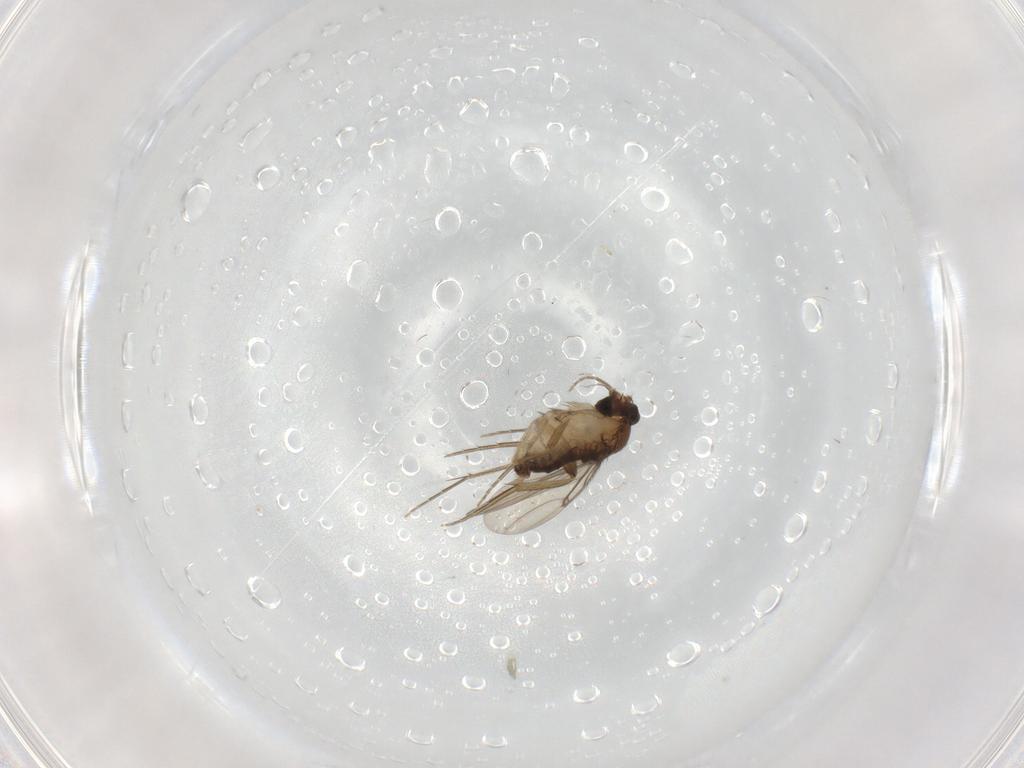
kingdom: Animalia
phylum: Arthropoda
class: Insecta
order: Diptera
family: Phoridae
